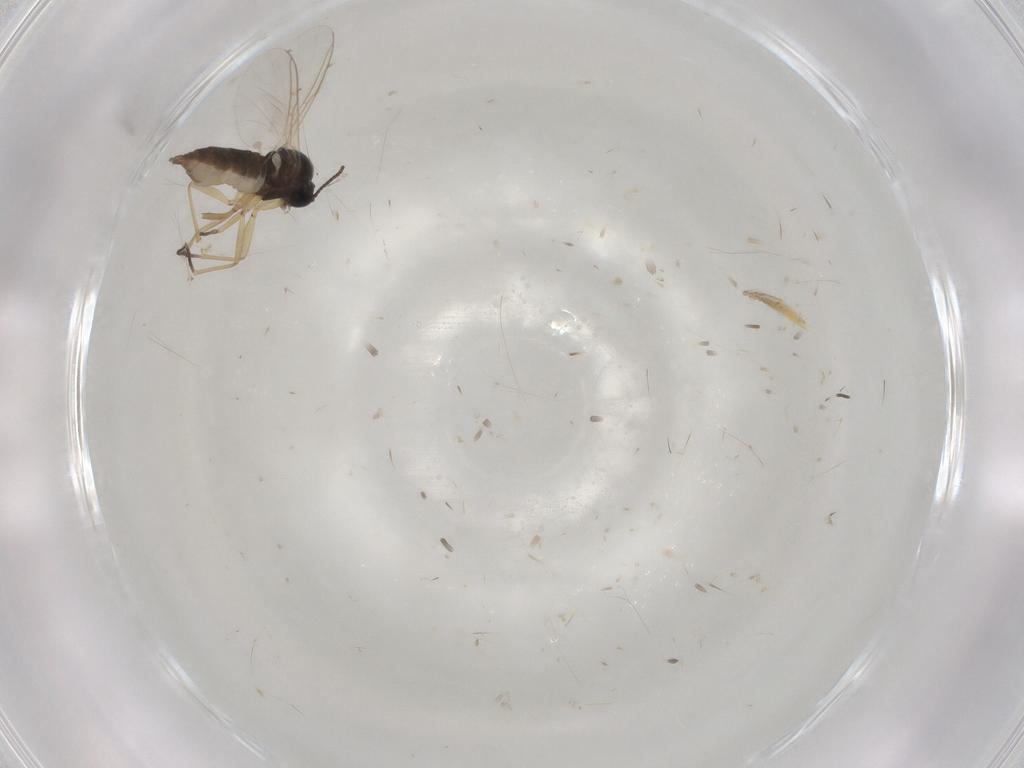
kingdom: Animalia
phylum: Arthropoda
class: Insecta
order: Diptera
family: Sciaridae
